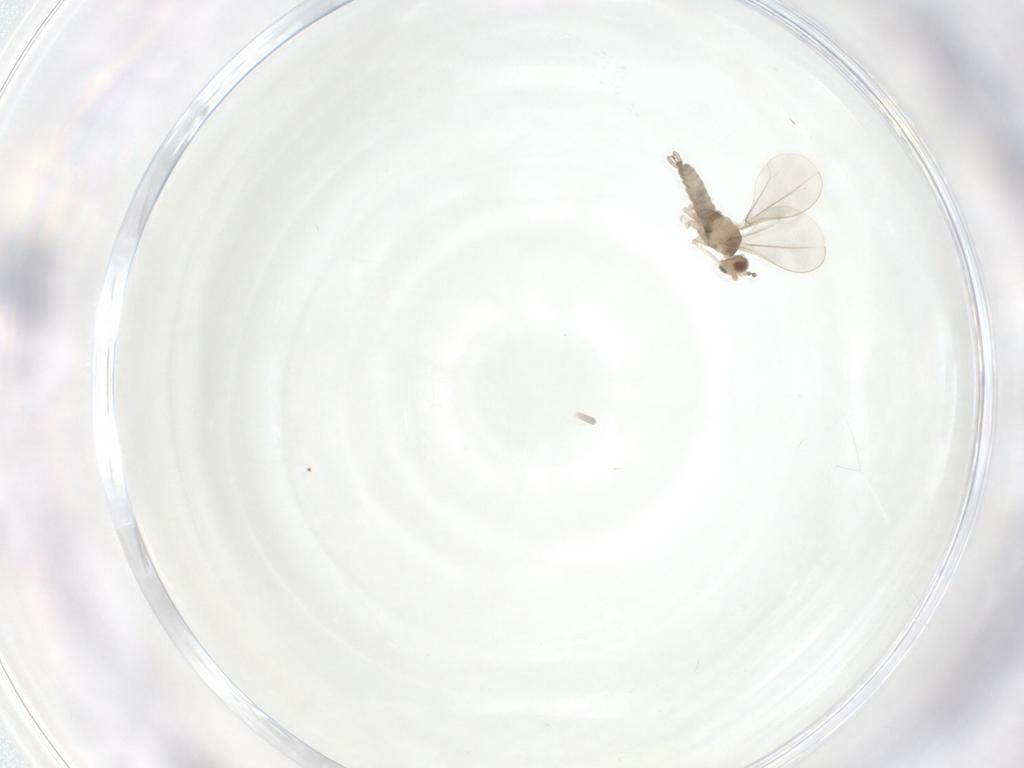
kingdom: Animalia
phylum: Arthropoda
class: Insecta
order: Diptera
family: Cecidomyiidae
